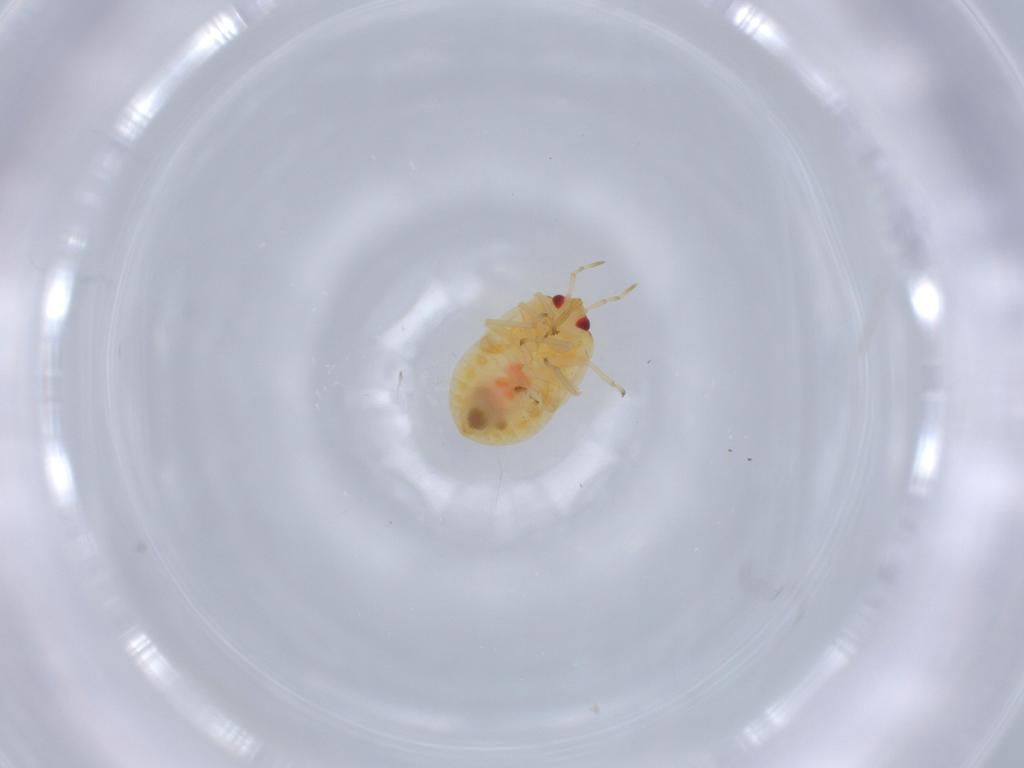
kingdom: Animalia
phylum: Arthropoda
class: Insecta
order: Hemiptera
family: Anthocoridae
